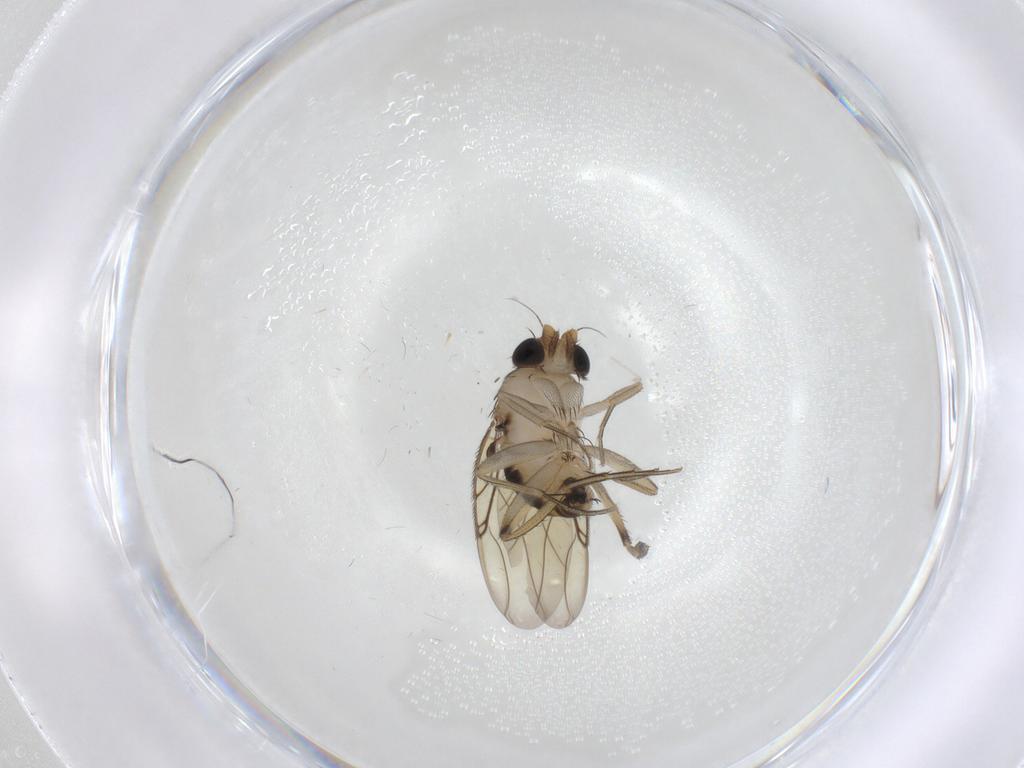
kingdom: Animalia
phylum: Arthropoda
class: Insecta
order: Diptera
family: Phoridae
